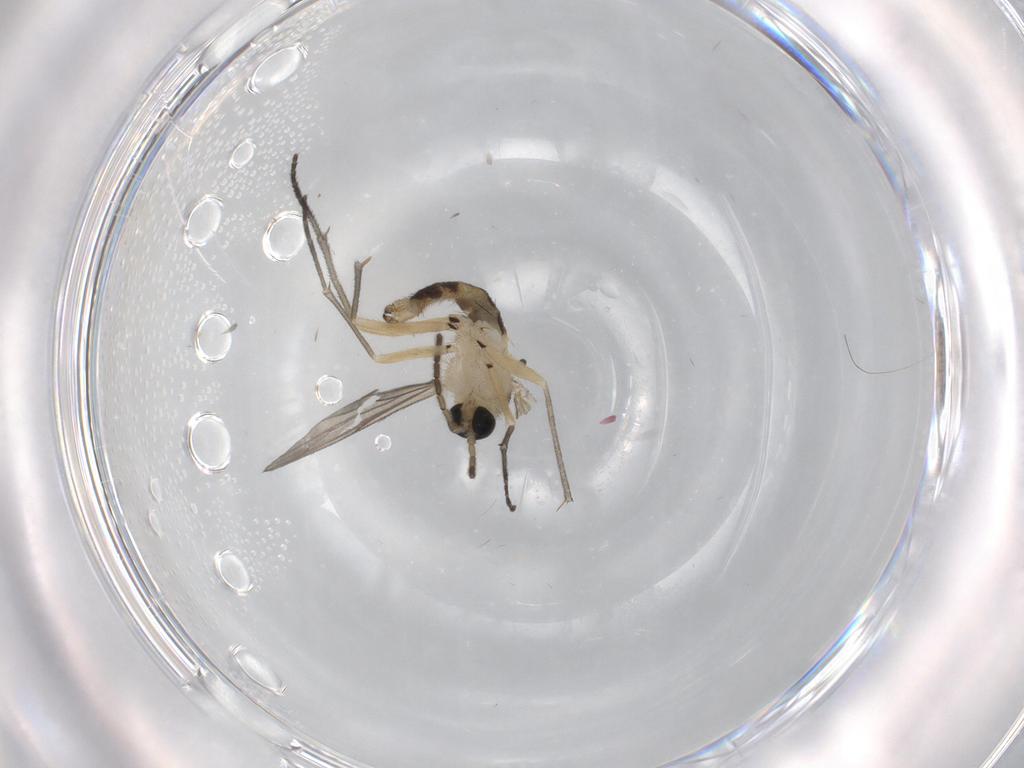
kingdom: Animalia
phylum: Arthropoda
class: Insecta
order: Diptera
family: Sciaridae
